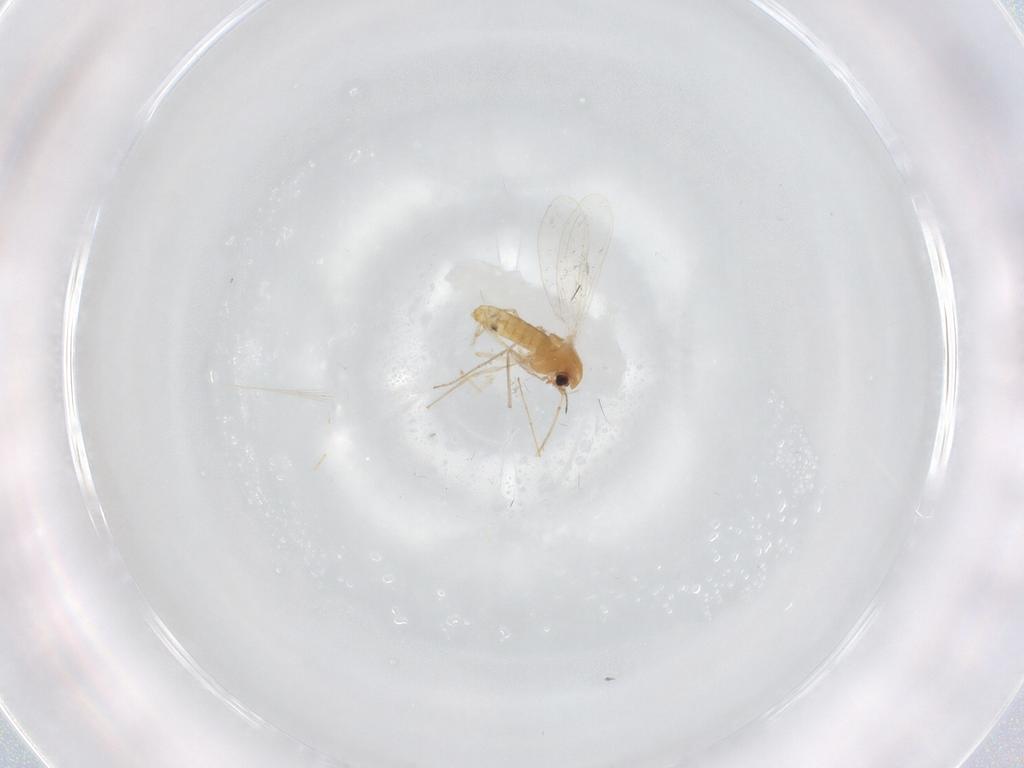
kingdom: Animalia
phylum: Arthropoda
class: Insecta
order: Diptera
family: Chironomidae
